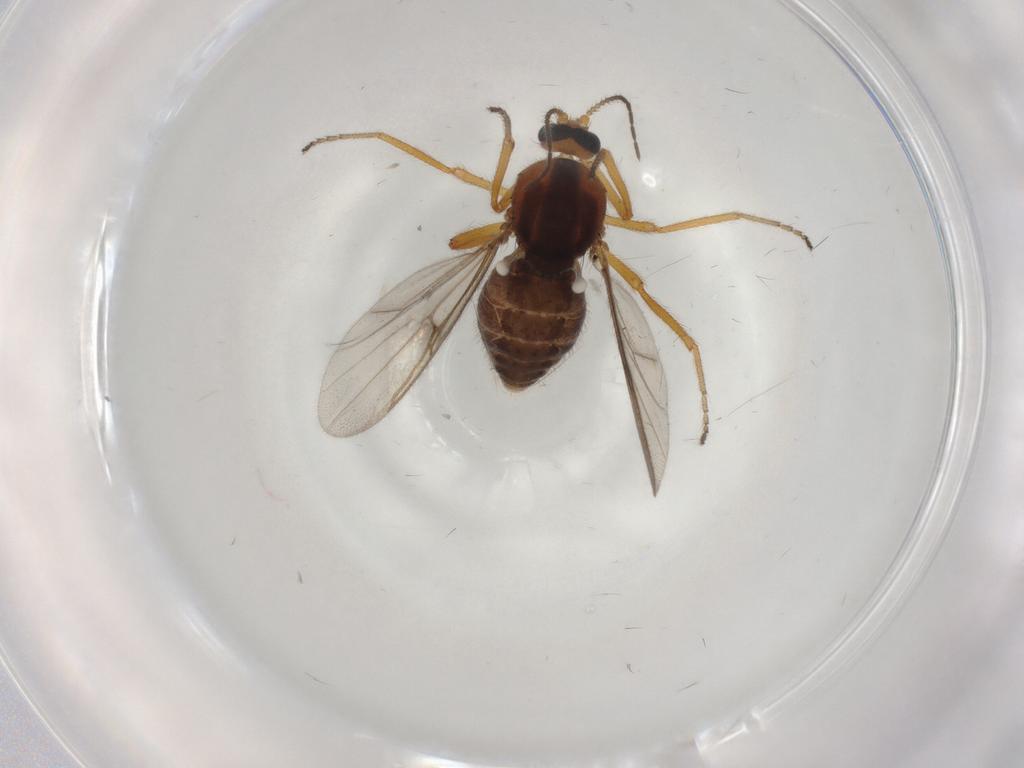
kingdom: Animalia
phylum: Arthropoda
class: Insecta
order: Diptera
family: Ceratopogonidae
